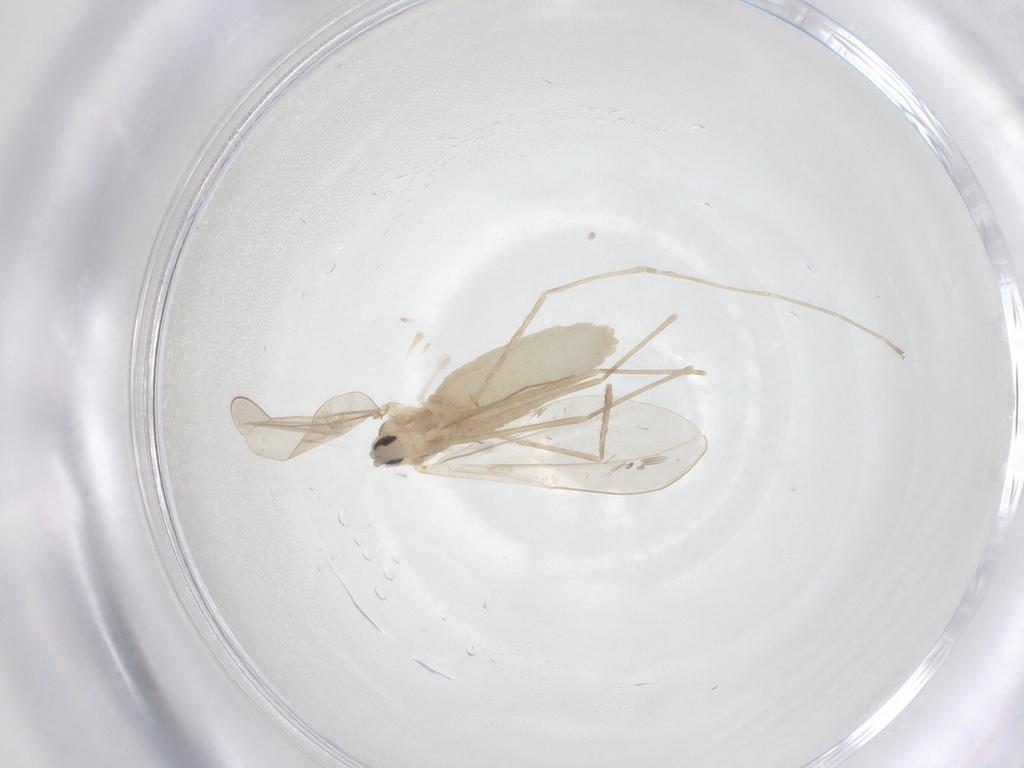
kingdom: Animalia
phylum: Arthropoda
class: Insecta
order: Diptera
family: Cecidomyiidae
